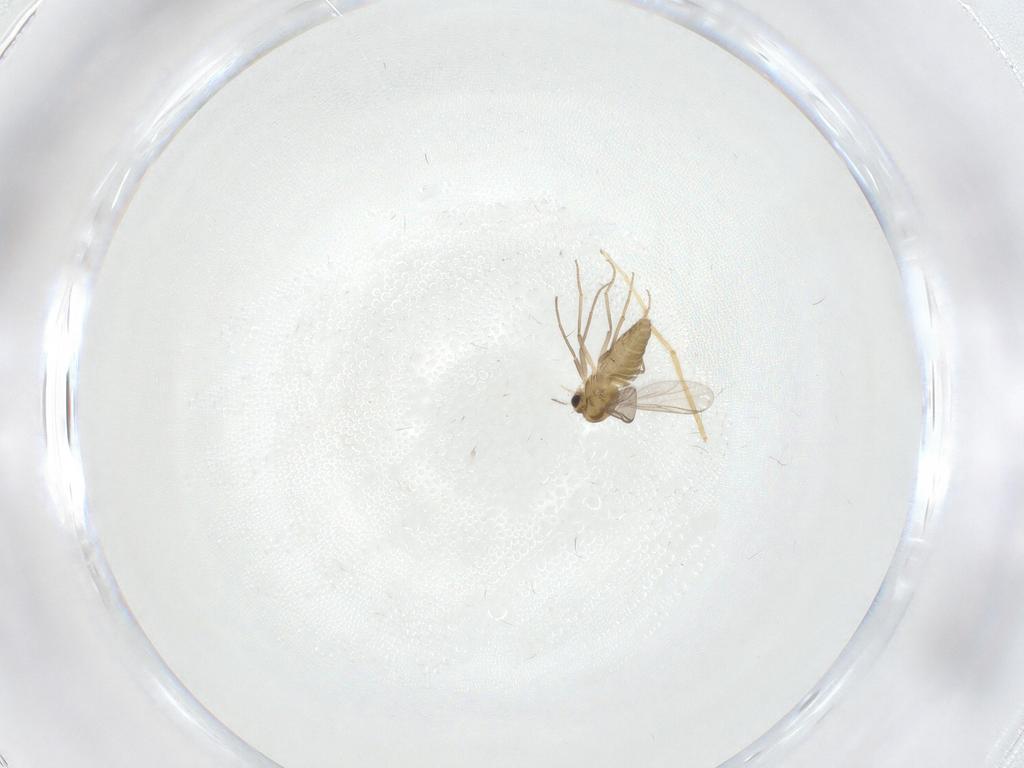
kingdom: Animalia
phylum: Arthropoda
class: Insecta
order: Diptera
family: Chironomidae
